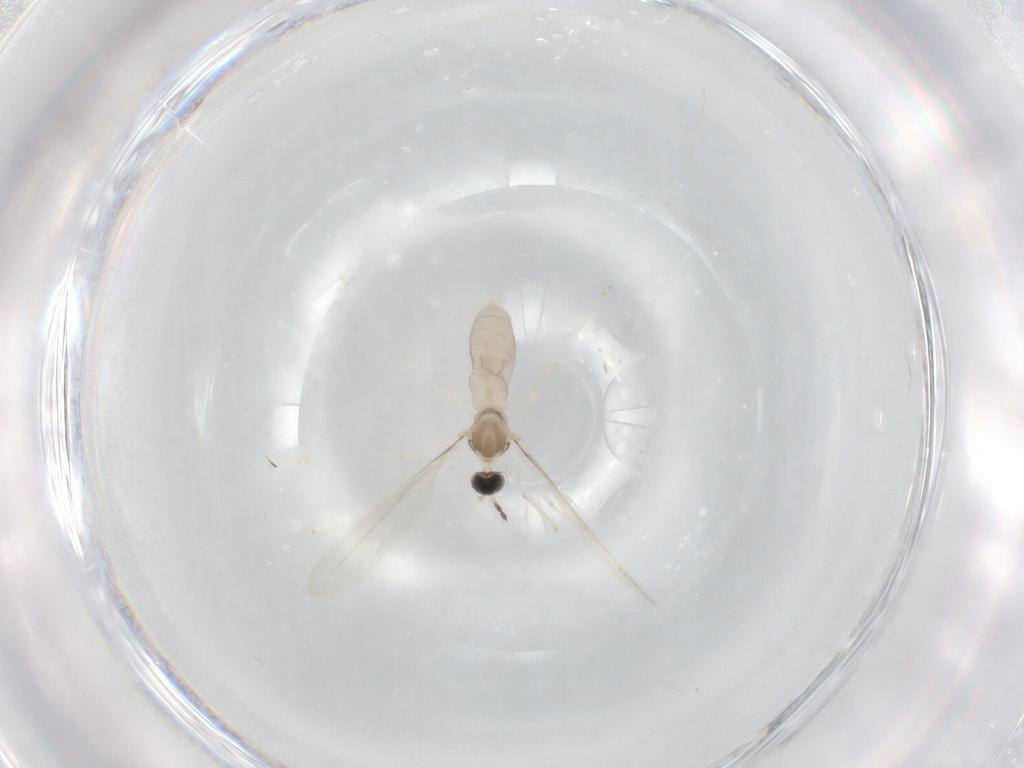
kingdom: Animalia
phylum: Arthropoda
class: Insecta
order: Diptera
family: Cecidomyiidae
